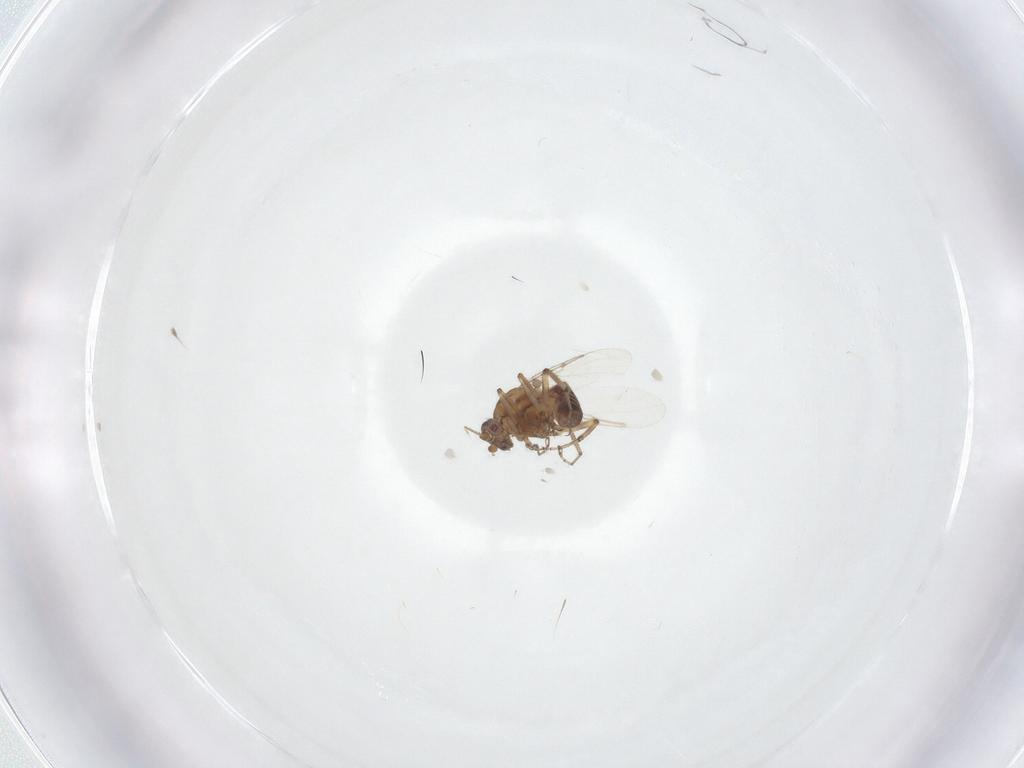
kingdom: Animalia
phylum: Arthropoda
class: Insecta
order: Diptera
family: Ceratopogonidae
